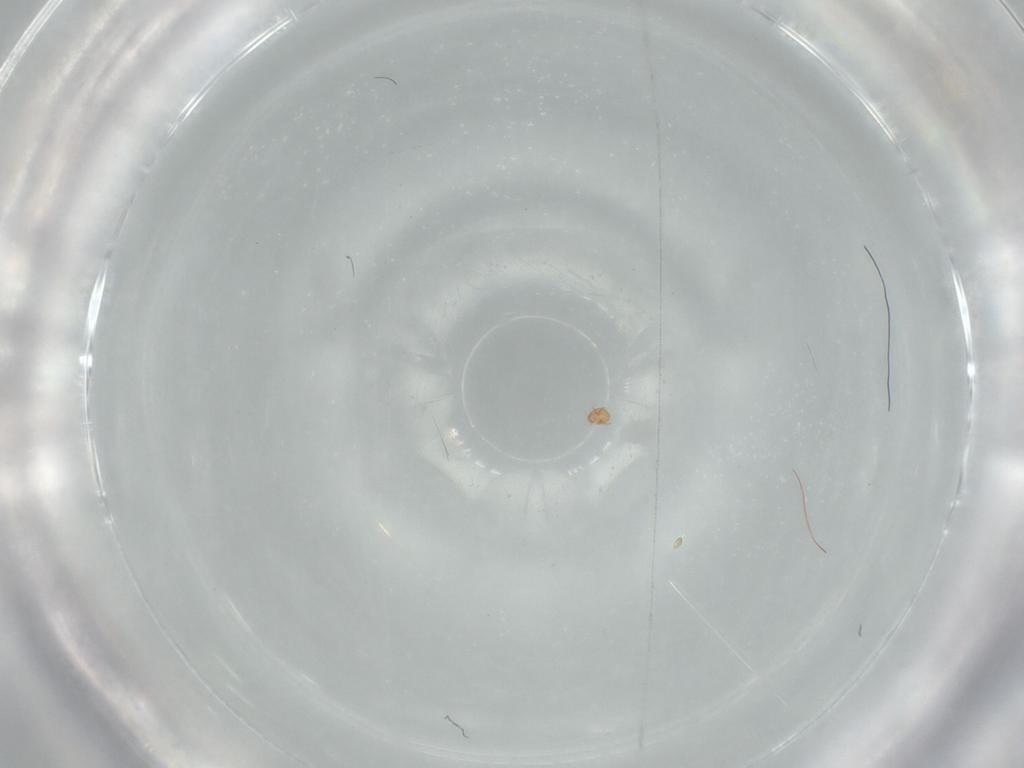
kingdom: Animalia
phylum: Arthropoda
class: Arachnida
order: Trombidiformes
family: Pygmephoridae
